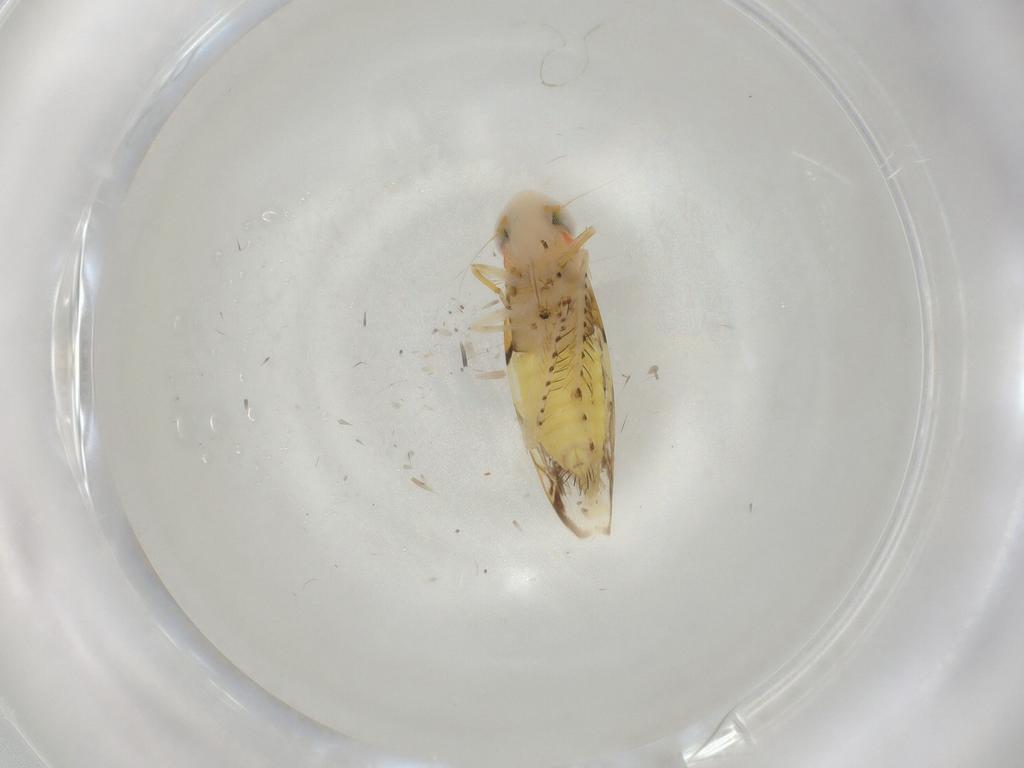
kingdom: Animalia
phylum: Arthropoda
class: Insecta
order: Hemiptera
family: Cicadellidae
